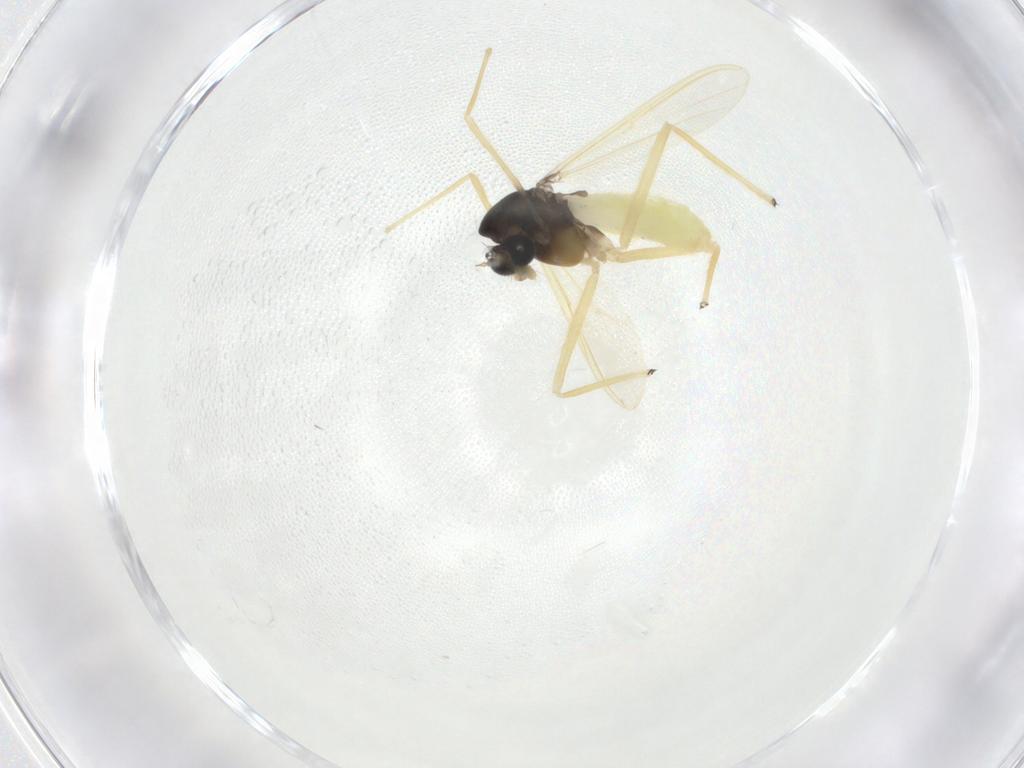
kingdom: Animalia
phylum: Arthropoda
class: Insecta
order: Diptera
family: Chironomidae
